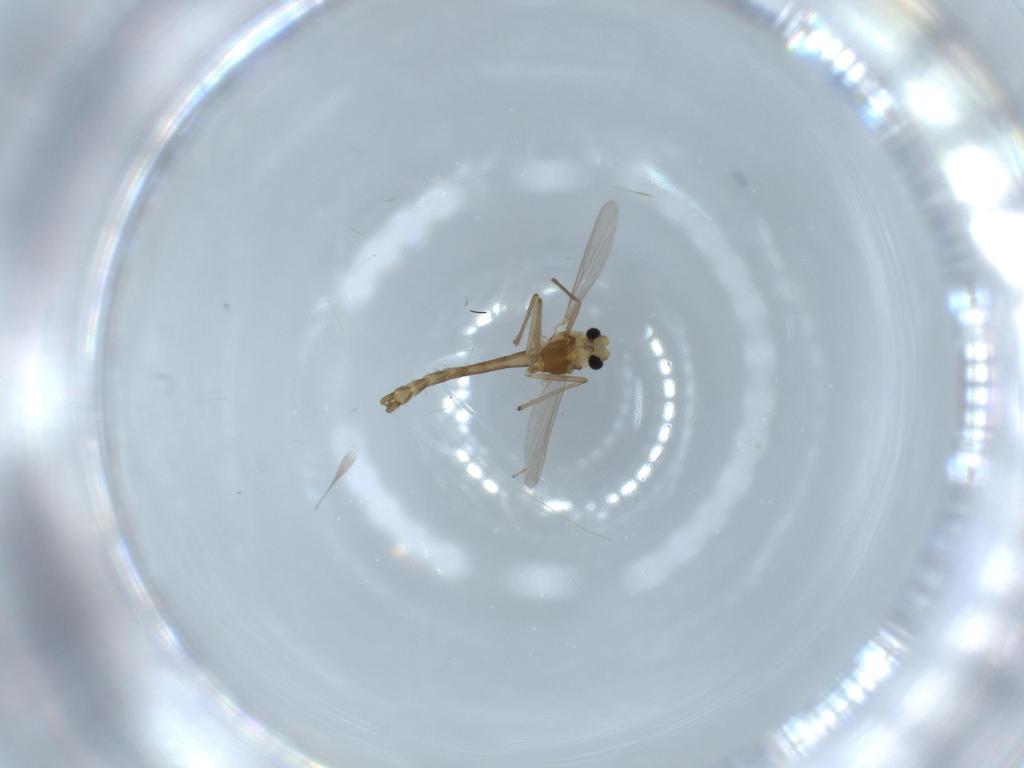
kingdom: Animalia
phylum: Arthropoda
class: Insecta
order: Diptera
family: Chironomidae
